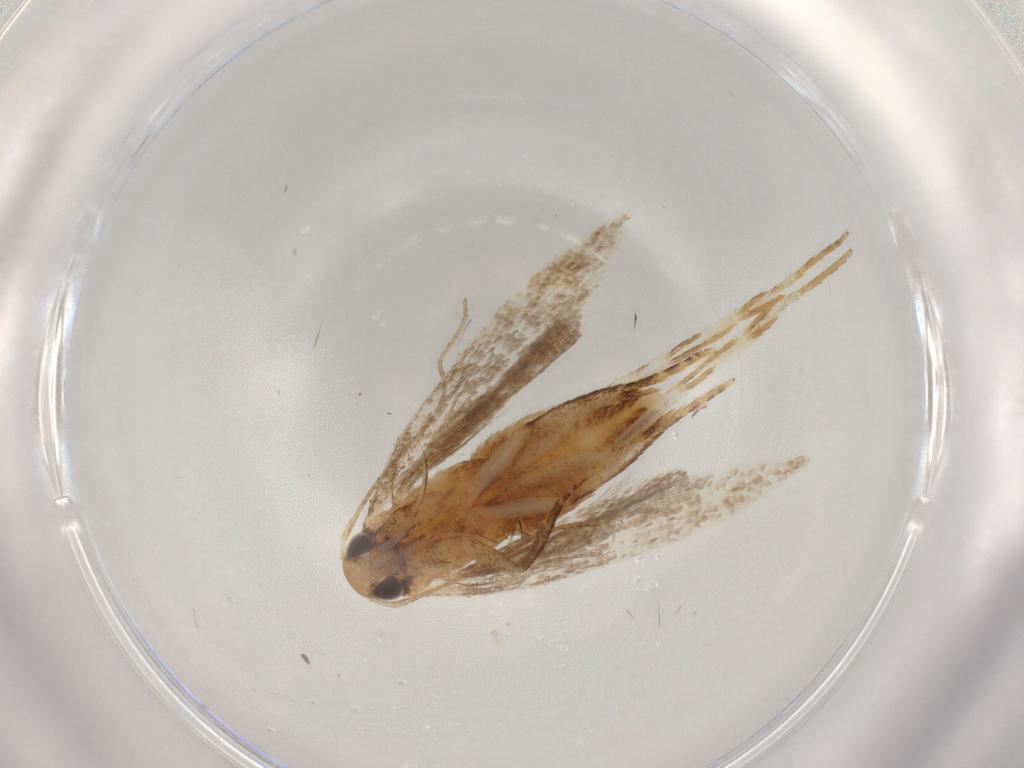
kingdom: Animalia
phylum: Arthropoda
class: Insecta
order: Lepidoptera
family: Gelechiidae
